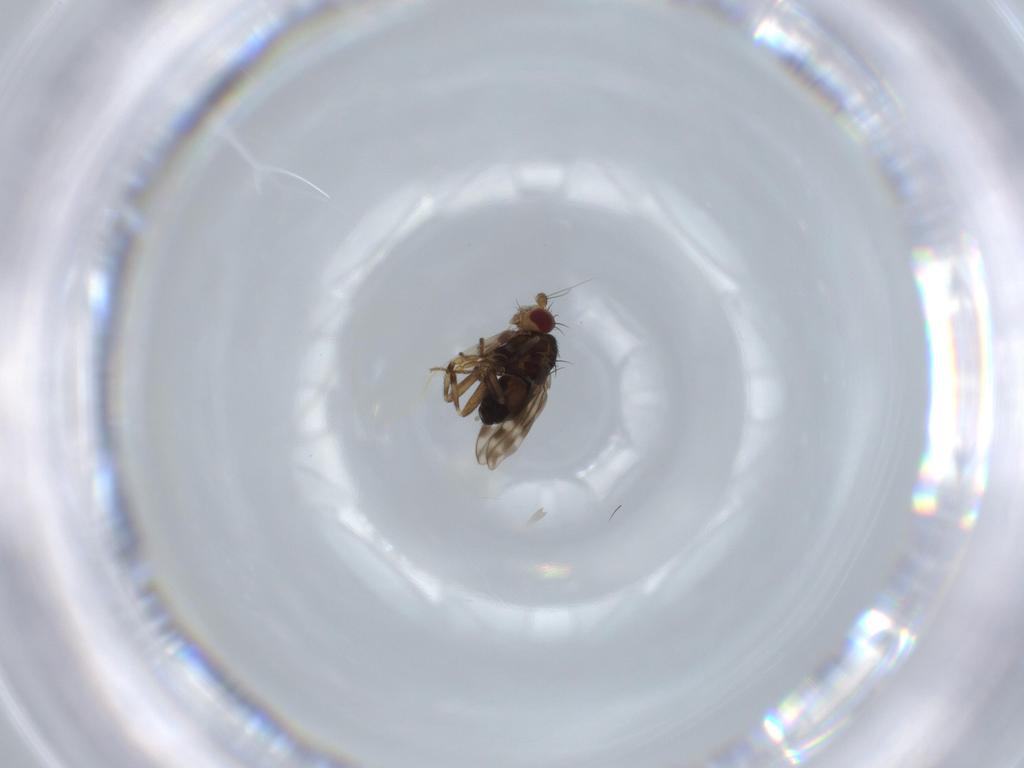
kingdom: Animalia
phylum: Arthropoda
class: Insecta
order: Diptera
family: Sphaeroceridae
